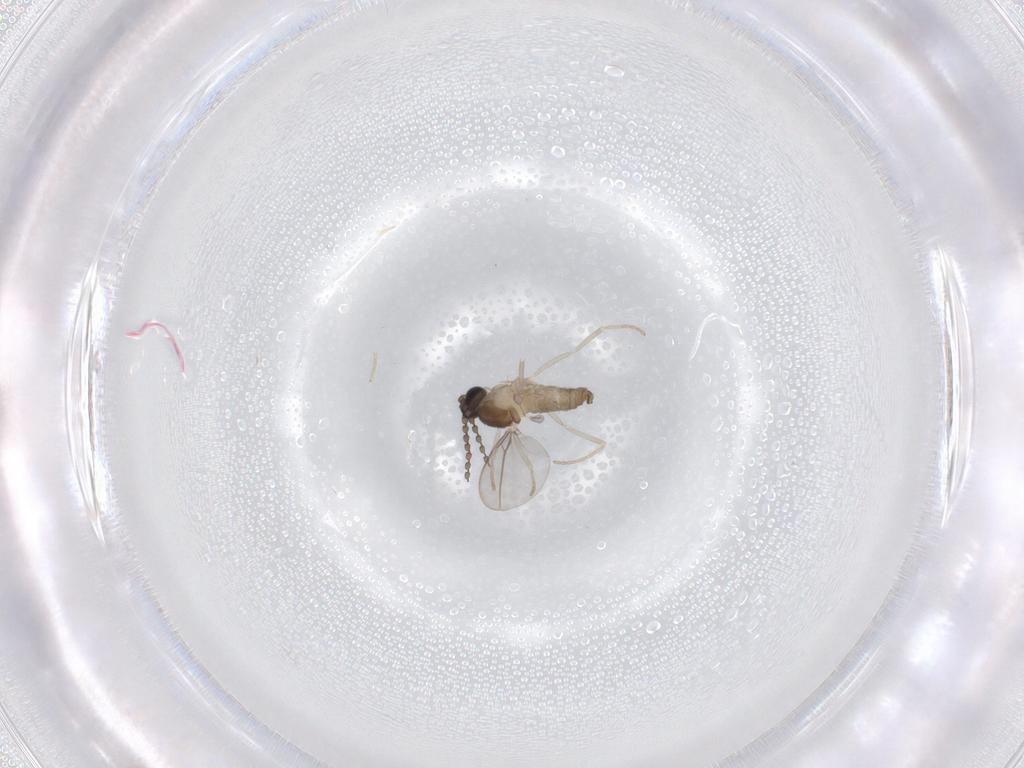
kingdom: Animalia
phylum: Arthropoda
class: Insecta
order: Diptera
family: Cecidomyiidae
